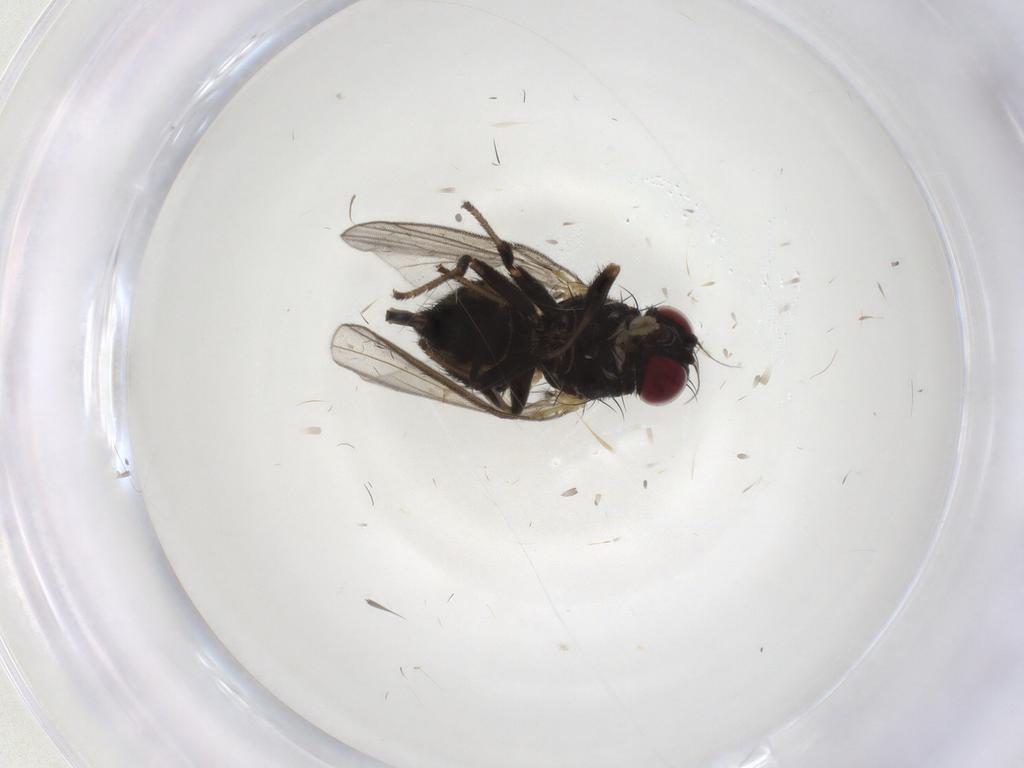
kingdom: Animalia
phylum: Arthropoda
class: Insecta
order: Diptera
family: Agromyzidae
